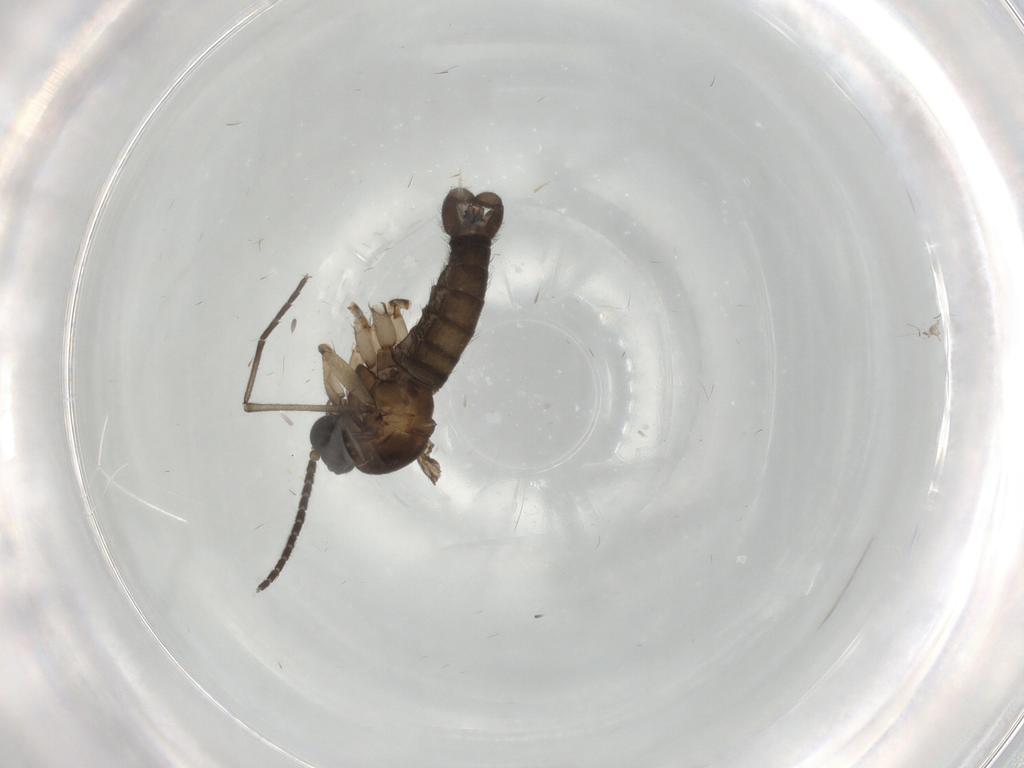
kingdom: Animalia
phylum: Arthropoda
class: Insecta
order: Diptera
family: Sciaridae
